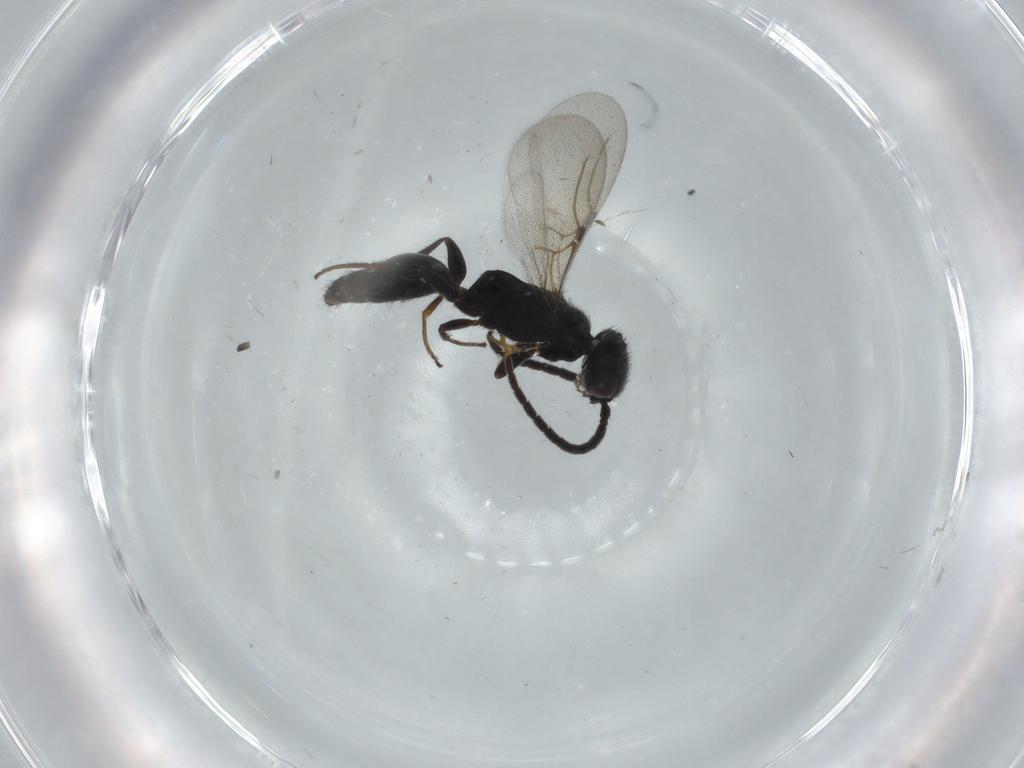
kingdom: Animalia
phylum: Arthropoda
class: Insecta
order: Hymenoptera
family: Bethylidae
